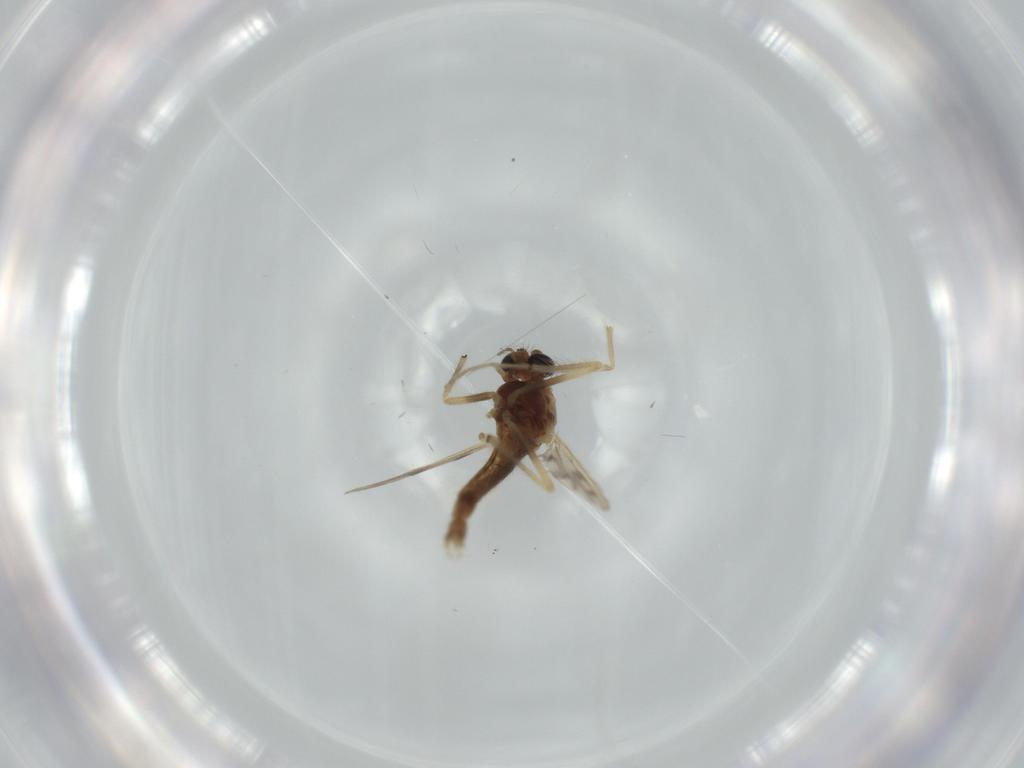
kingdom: Animalia
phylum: Arthropoda
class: Insecta
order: Diptera
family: Chironomidae
